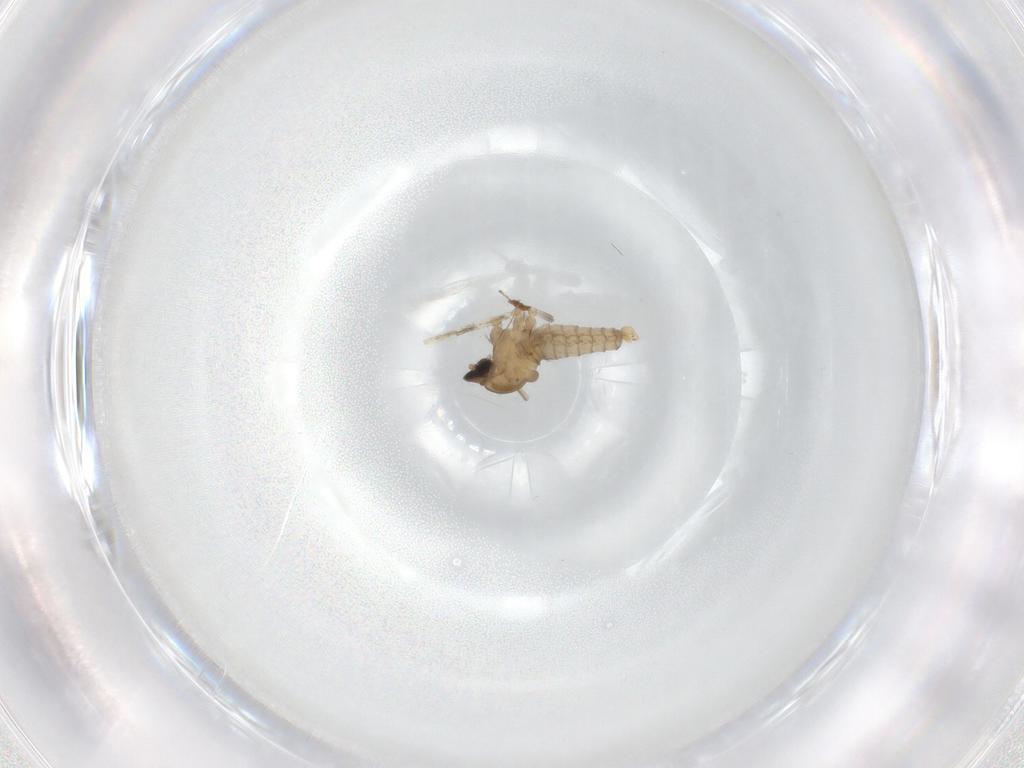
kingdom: Animalia
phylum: Arthropoda
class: Insecta
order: Diptera
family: Cecidomyiidae
